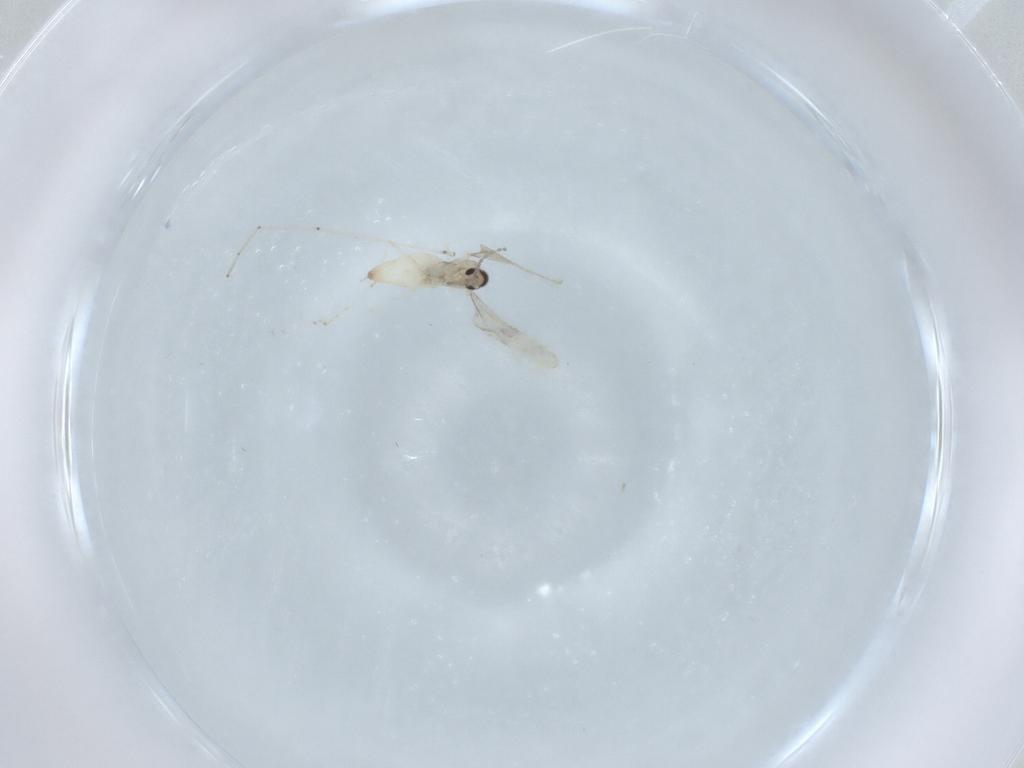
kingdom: Animalia
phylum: Arthropoda
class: Insecta
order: Diptera
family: Cecidomyiidae
